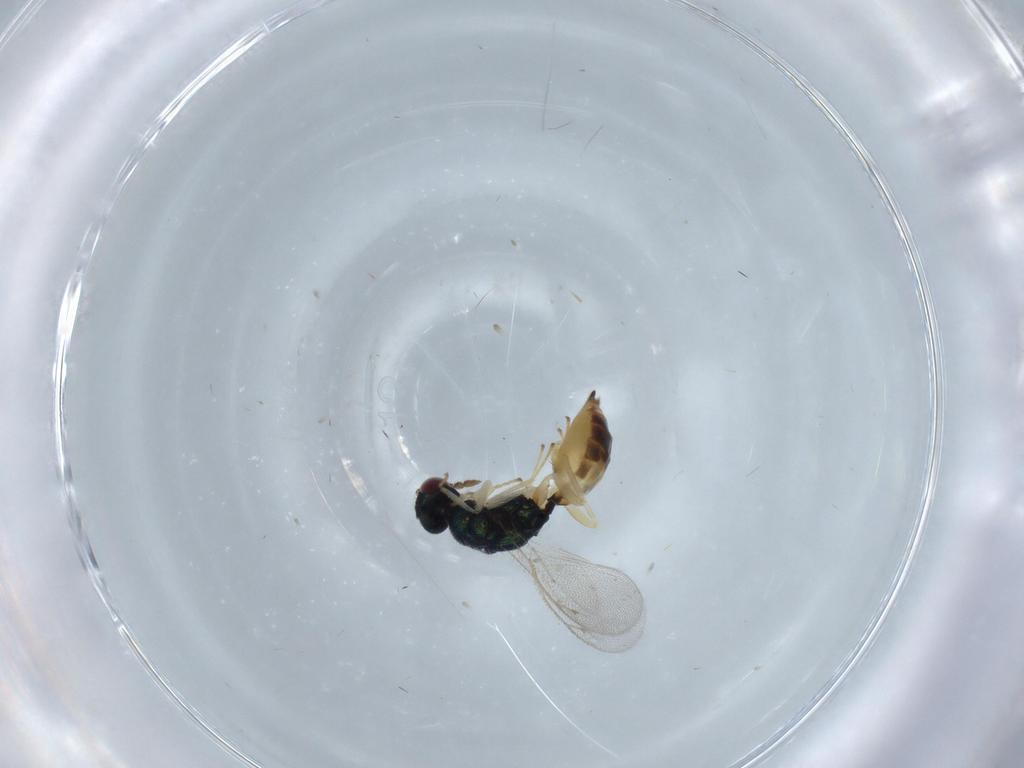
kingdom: Animalia
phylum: Arthropoda
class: Insecta
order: Hymenoptera
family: Eulophidae
